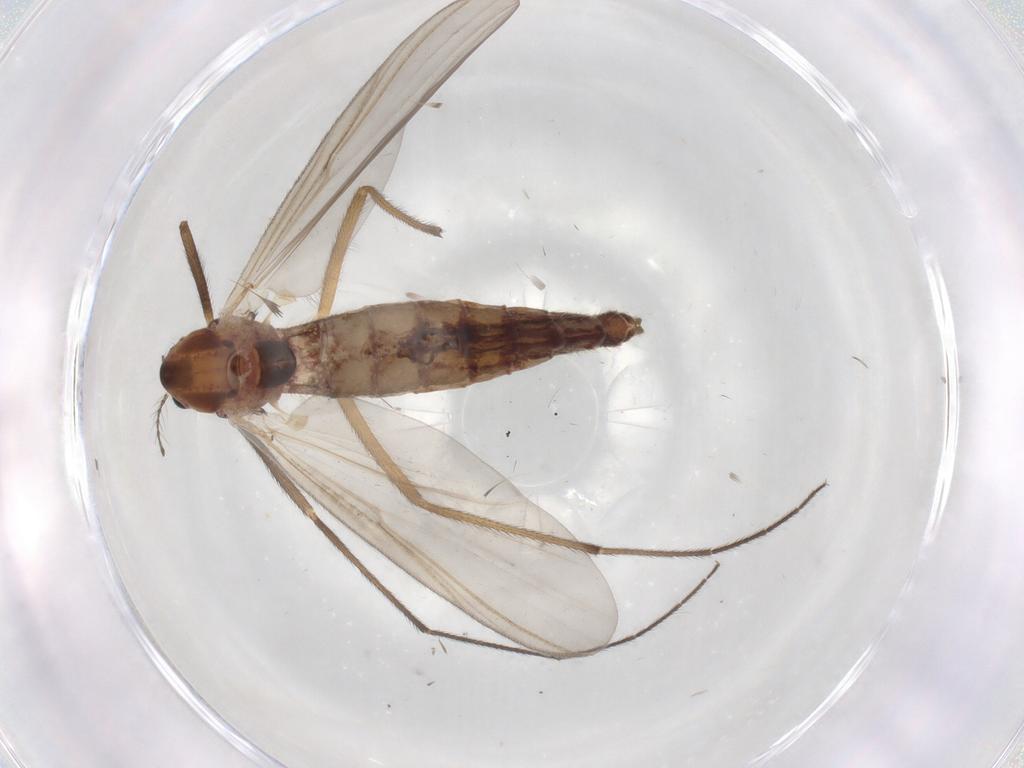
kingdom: Animalia
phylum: Arthropoda
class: Insecta
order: Diptera
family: Chironomidae
